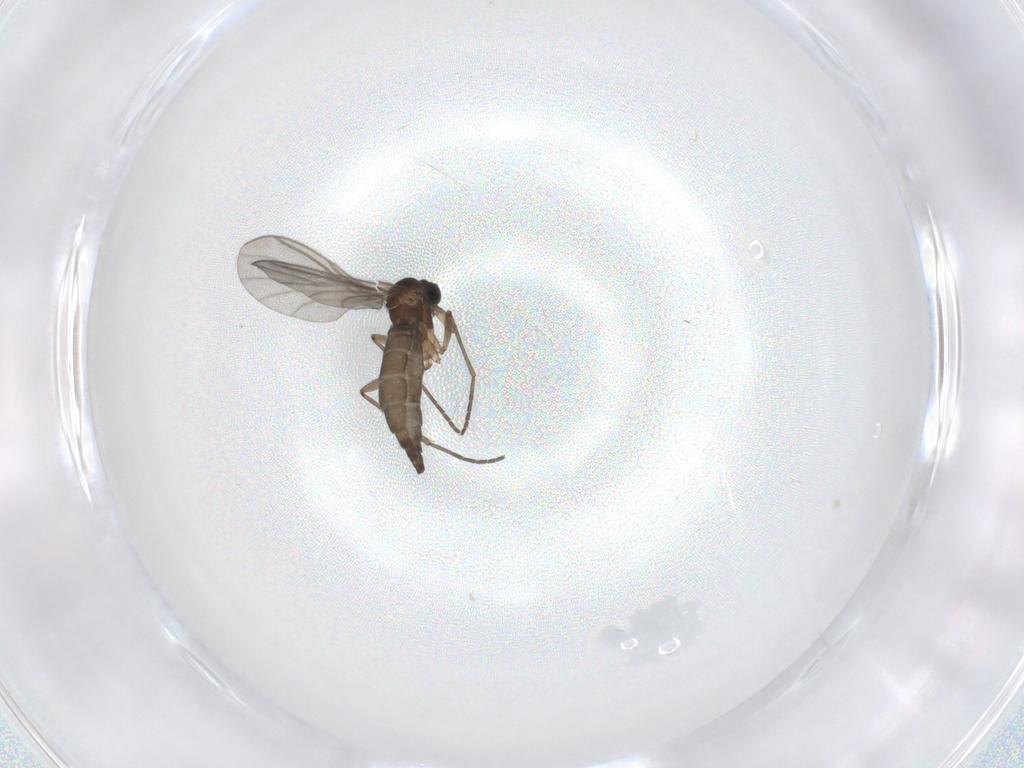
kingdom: Animalia
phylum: Arthropoda
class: Insecta
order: Diptera
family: Sciaridae
